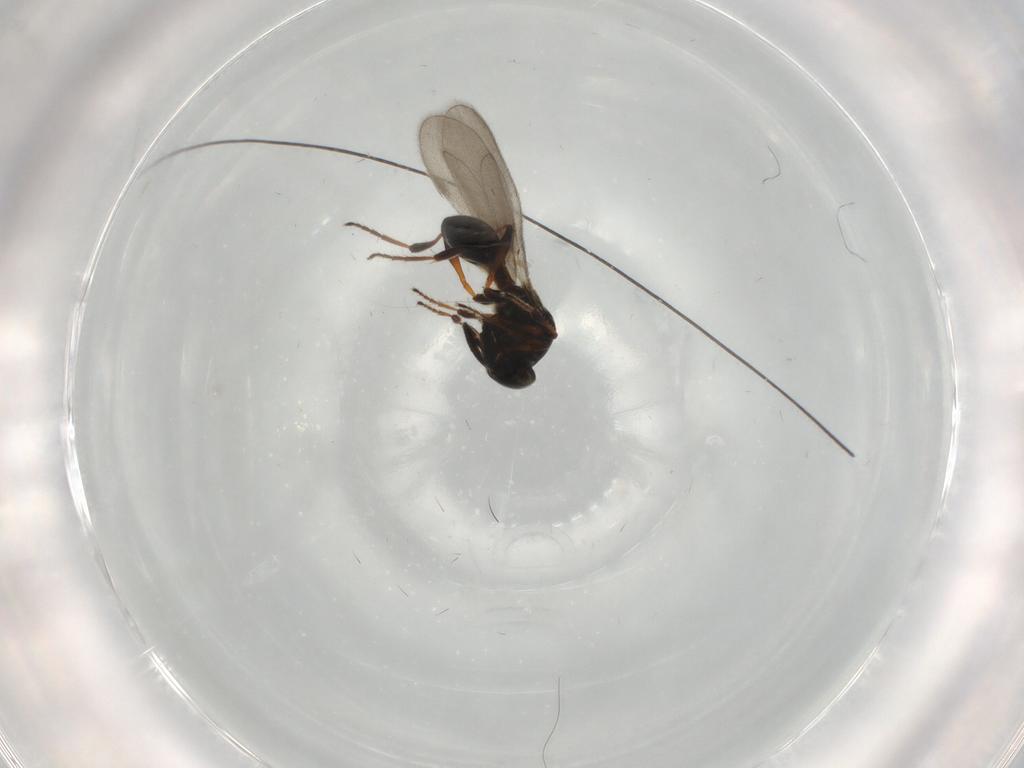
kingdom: Animalia
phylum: Arthropoda
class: Insecta
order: Hymenoptera
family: Platygastridae
